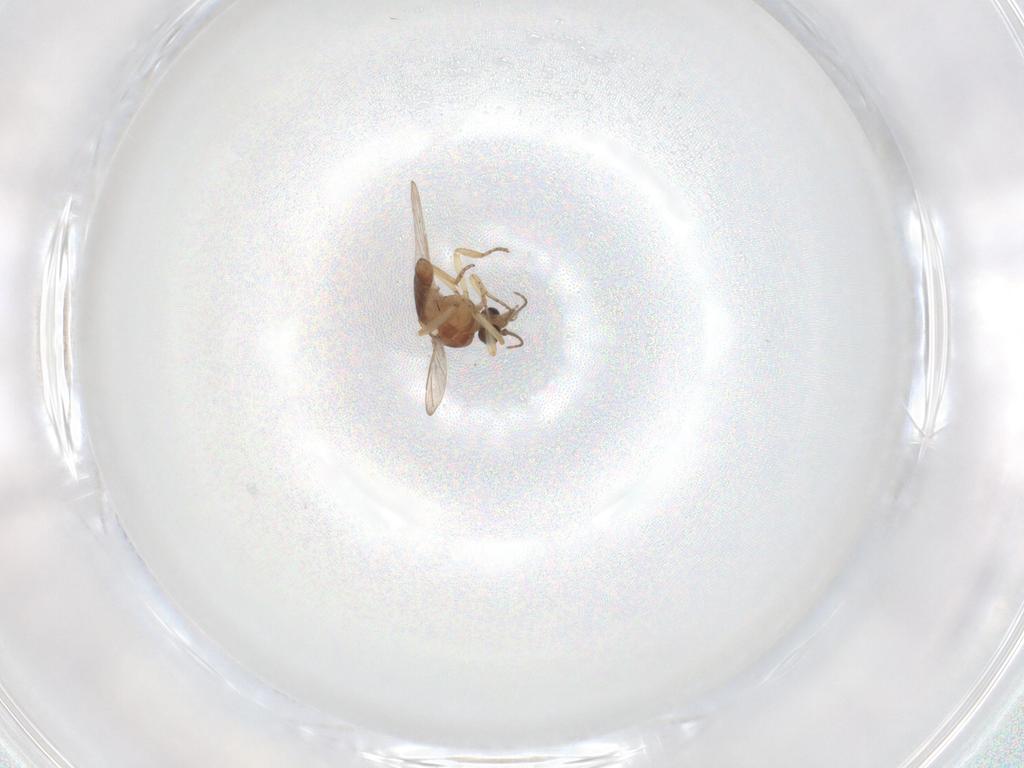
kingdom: Animalia
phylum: Arthropoda
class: Insecta
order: Diptera
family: Ceratopogonidae
